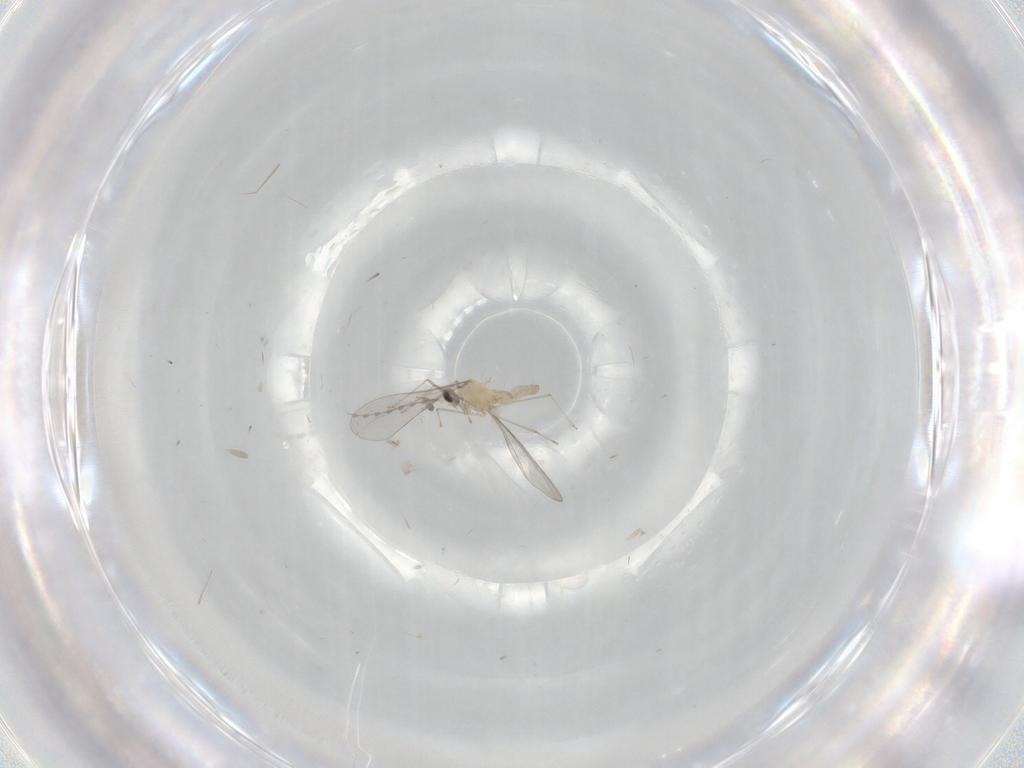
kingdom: Animalia
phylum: Arthropoda
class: Insecta
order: Diptera
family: Cecidomyiidae
